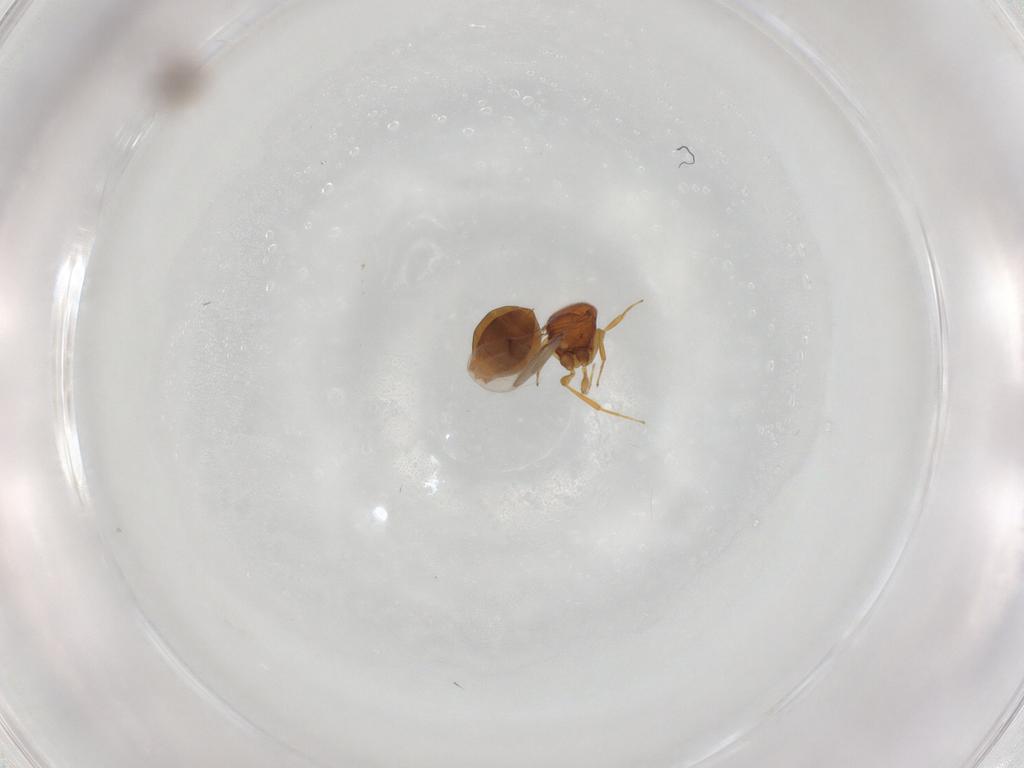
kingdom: Animalia
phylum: Arthropoda
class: Insecta
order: Hymenoptera
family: Scelionidae
